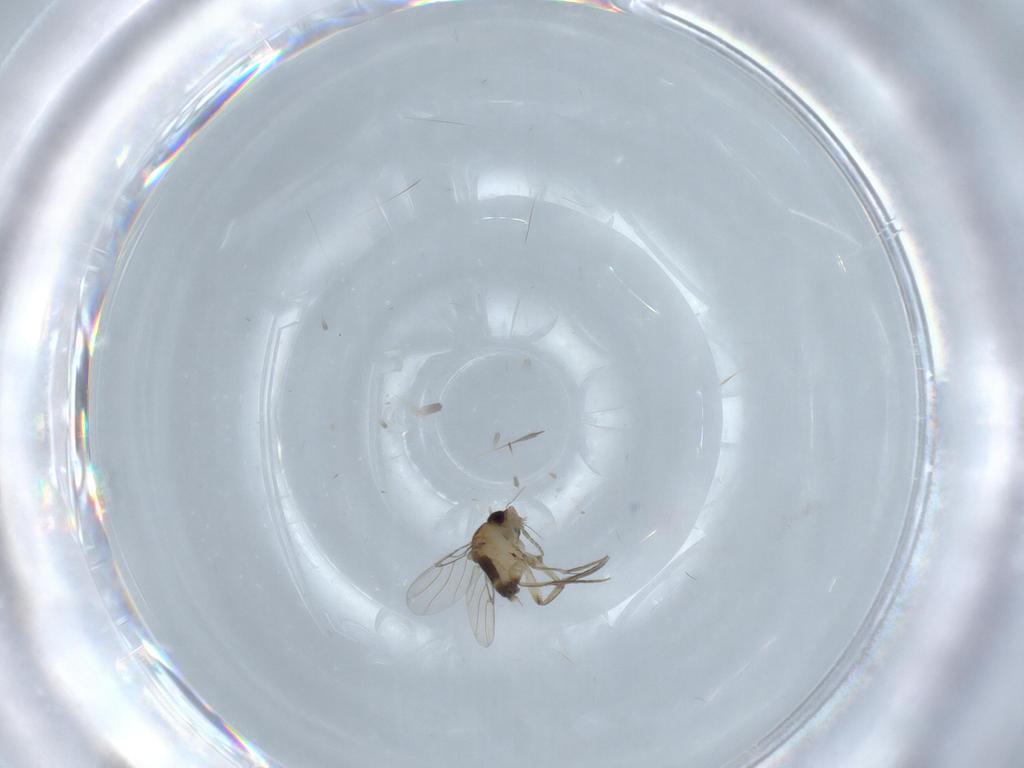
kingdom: Animalia
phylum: Arthropoda
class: Insecta
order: Diptera
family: Phoridae
